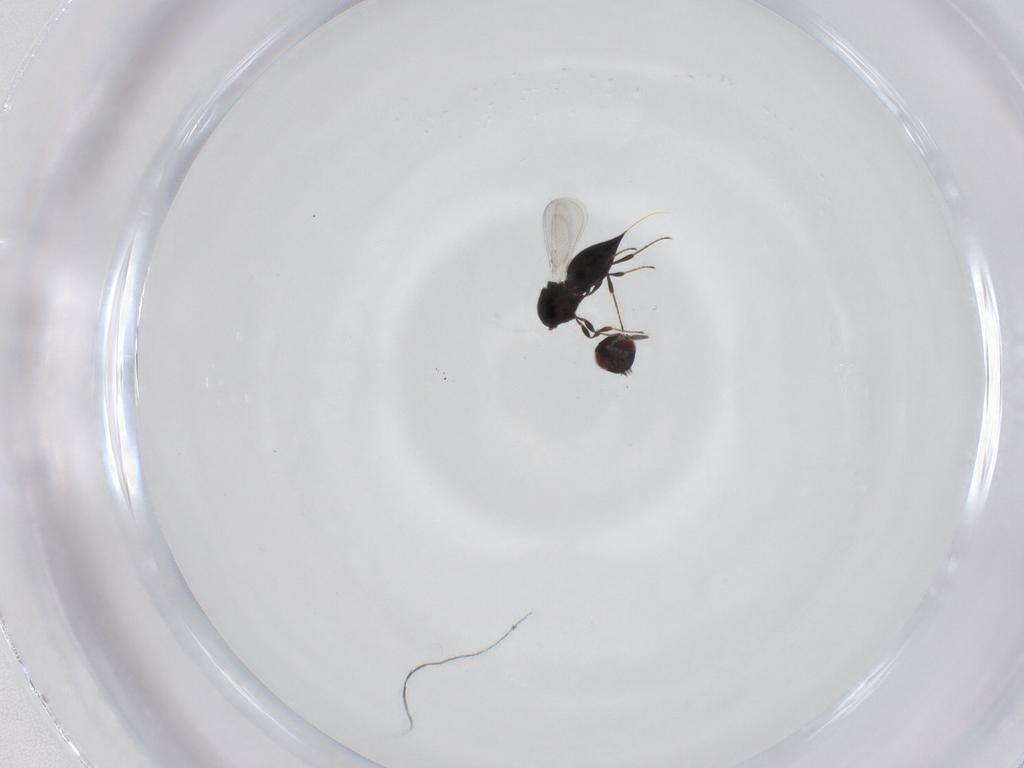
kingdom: Animalia
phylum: Arthropoda
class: Insecta
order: Hymenoptera
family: Eulophidae
